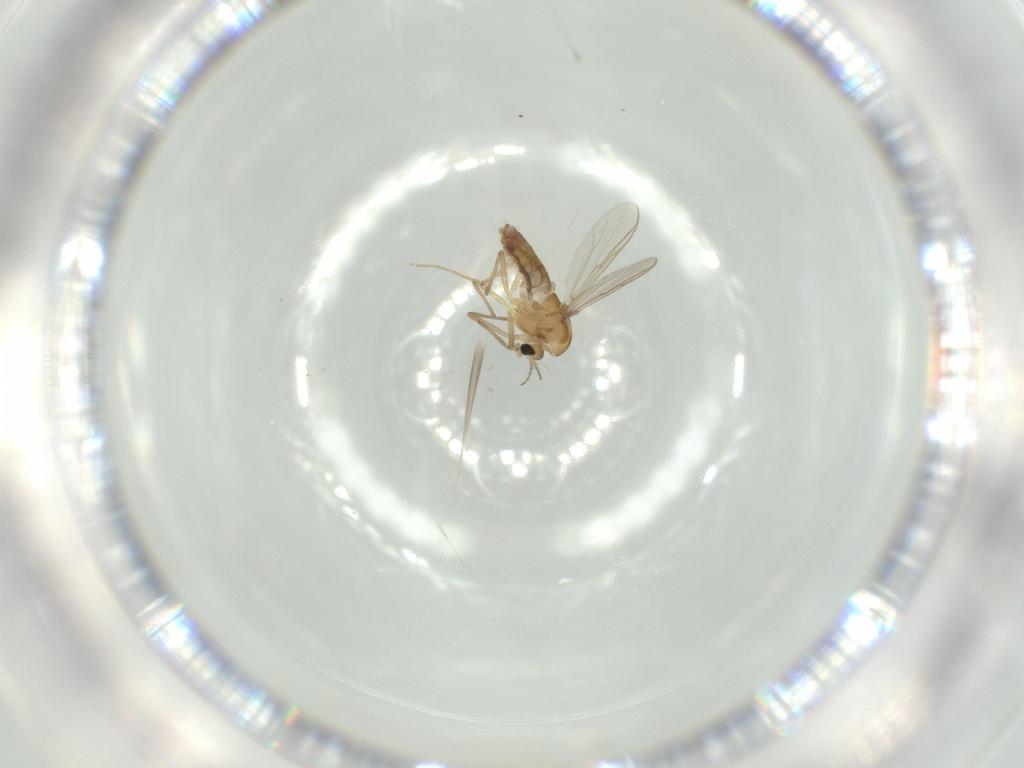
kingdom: Animalia
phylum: Arthropoda
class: Insecta
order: Diptera
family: Chironomidae
